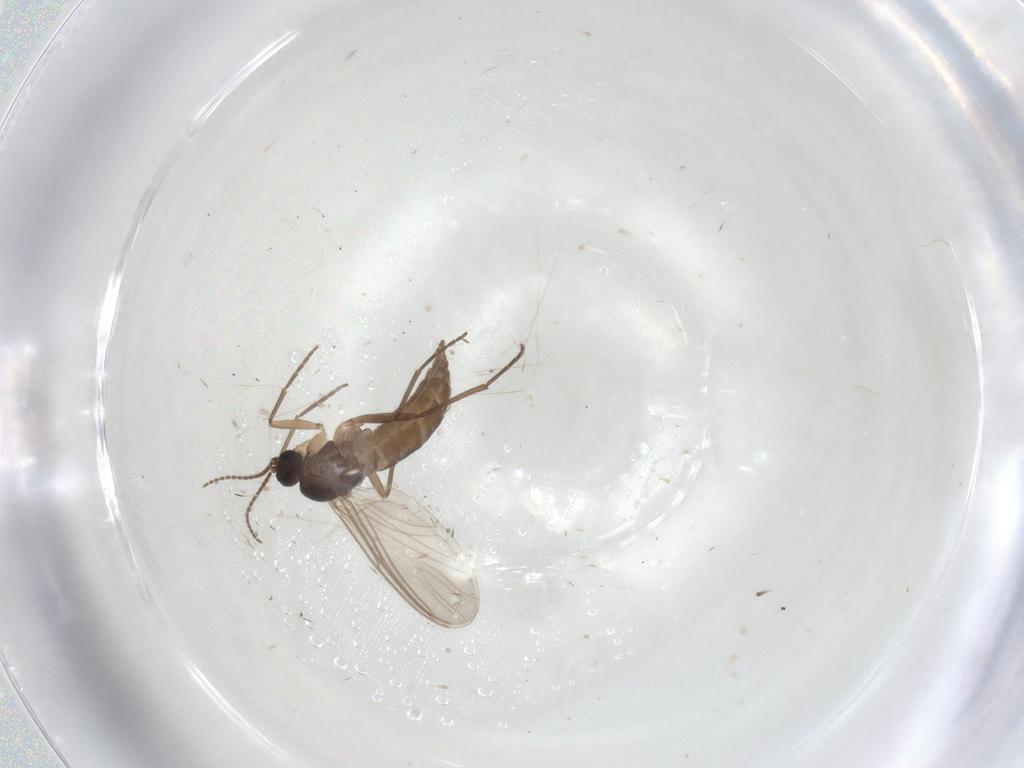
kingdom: Animalia
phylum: Arthropoda
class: Insecta
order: Diptera
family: Sciaridae
